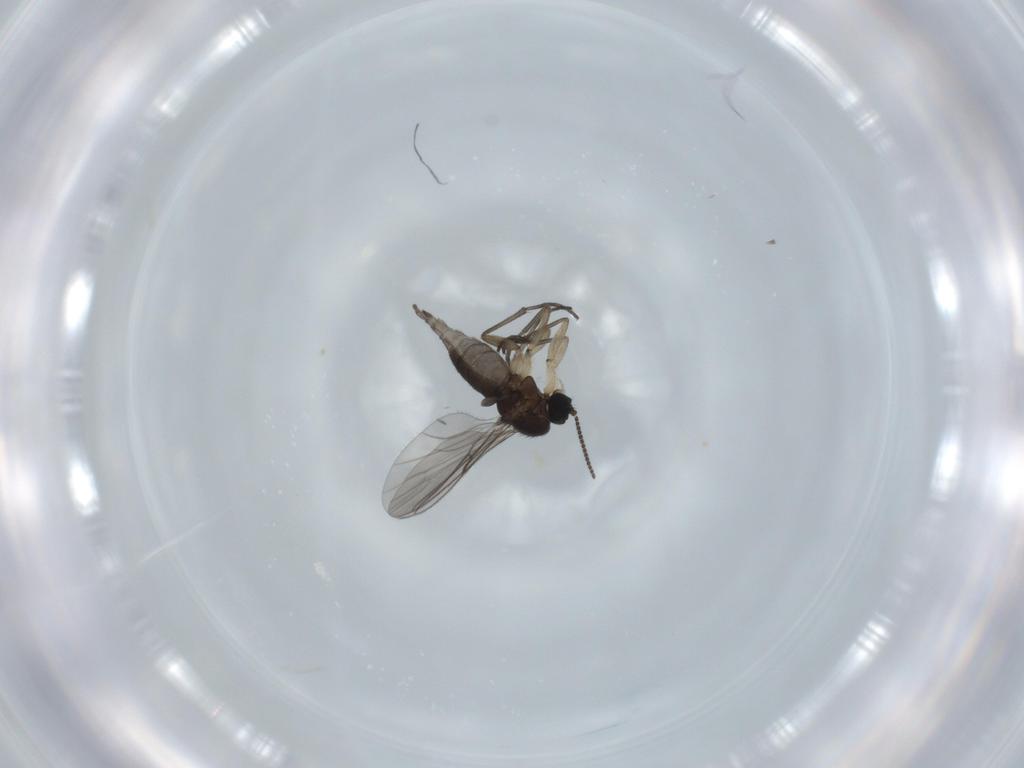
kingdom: Animalia
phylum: Arthropoda
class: Insecta
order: Diptera
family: Sciaridae
